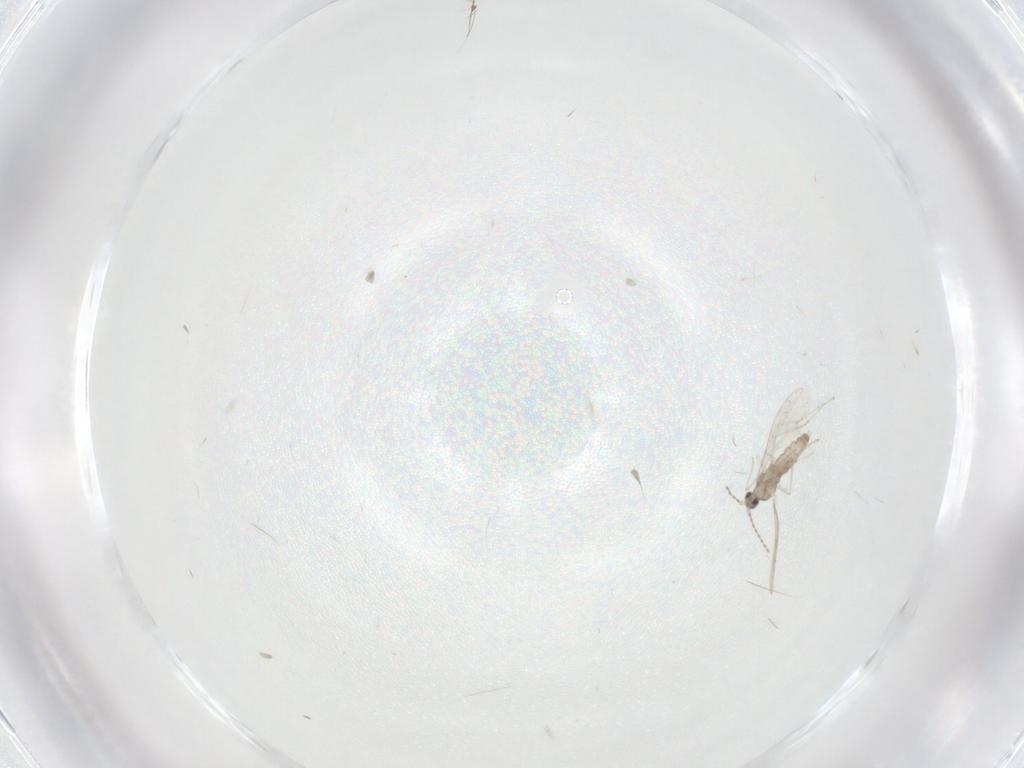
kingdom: Animalia
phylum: Arthropoda
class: Insecta
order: Diptera
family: Cecidomyiidae
